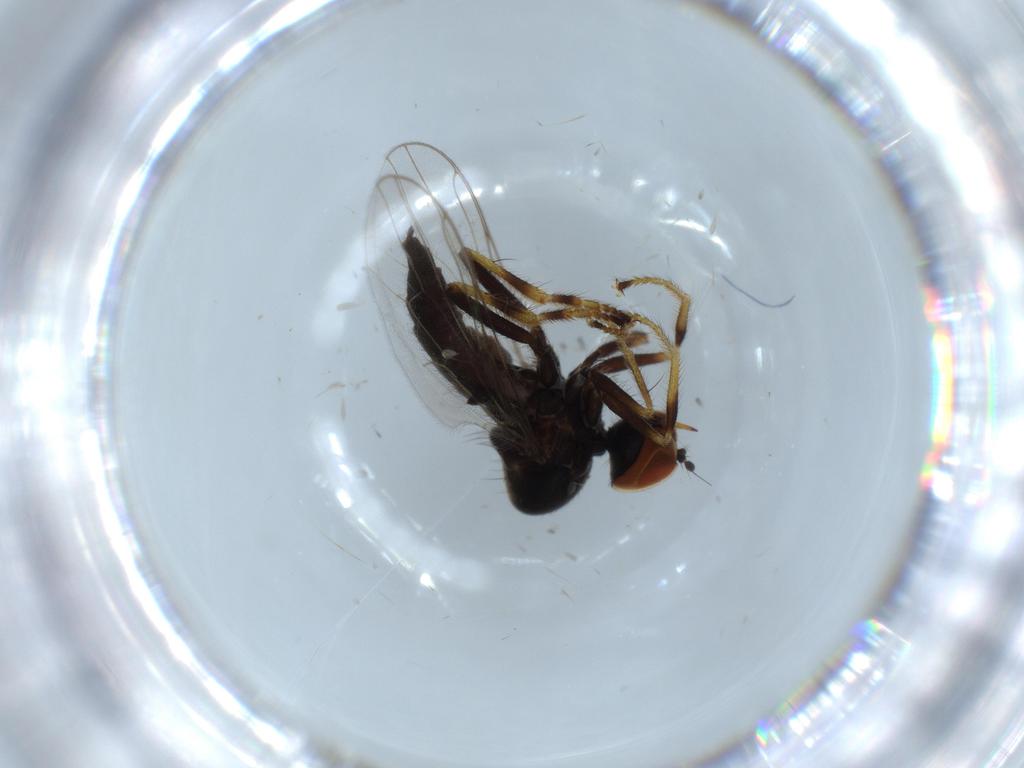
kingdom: Animalia
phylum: Arthropoda
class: Insecta
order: Diptera
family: Hybotidae
